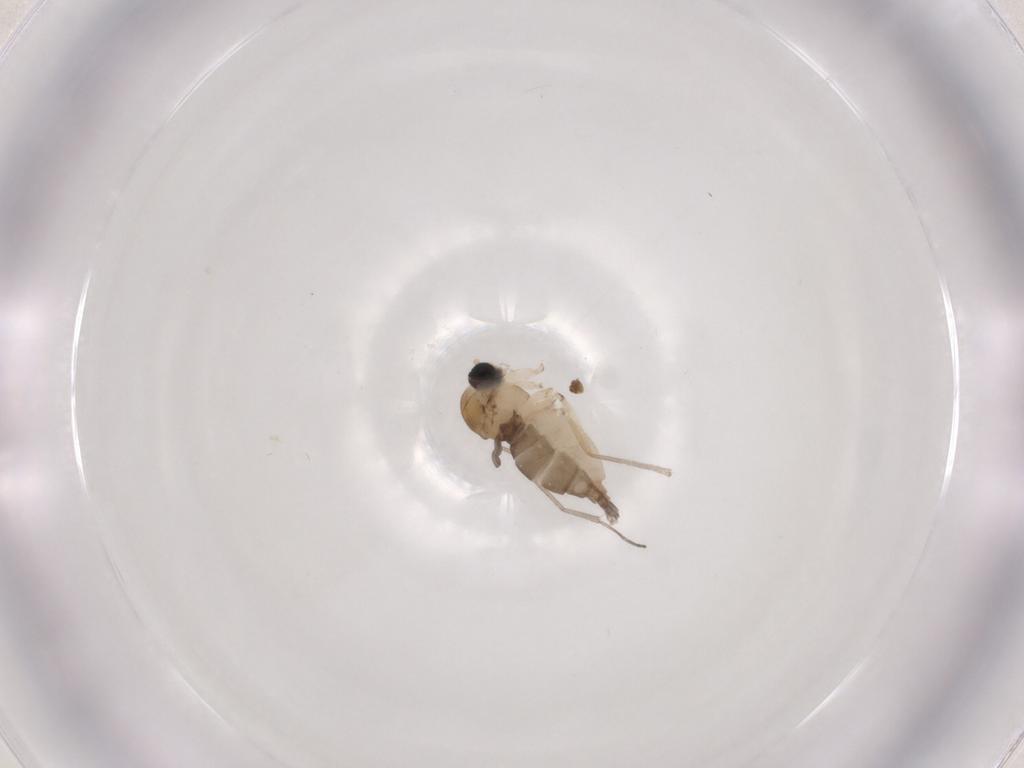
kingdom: Animalia
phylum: Arthropoda
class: Insecta
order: Diptera
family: Sciaridae
